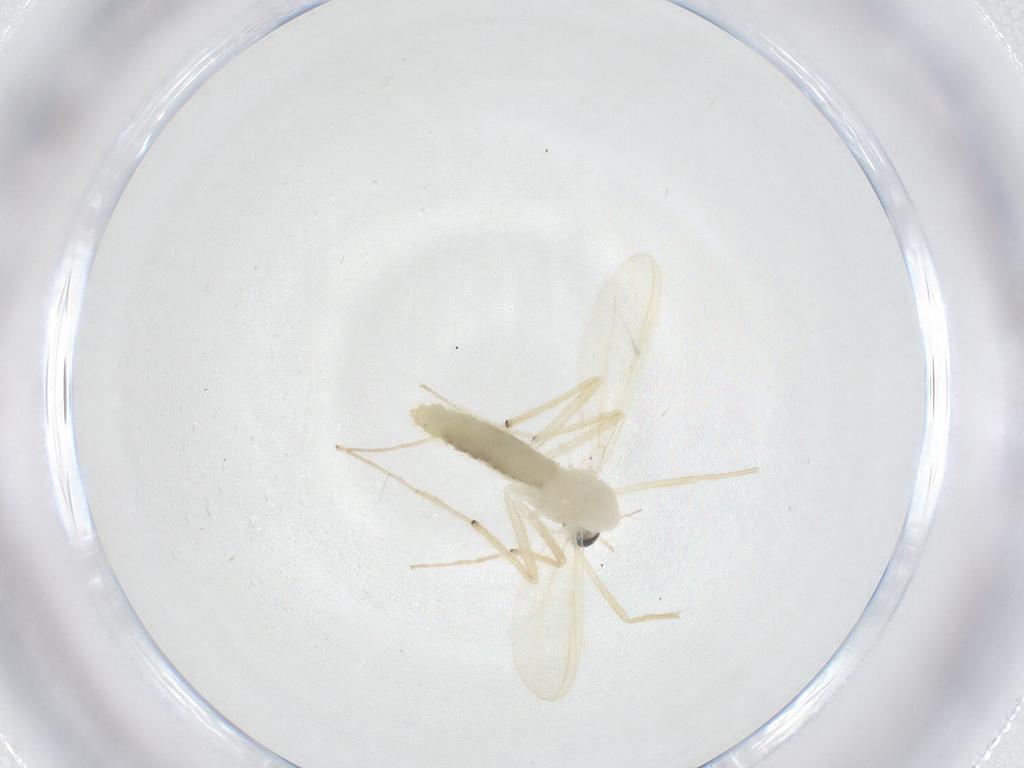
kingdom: Animalia
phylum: Arthropoda
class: Insecta
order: Diptera
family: Chironomidae
